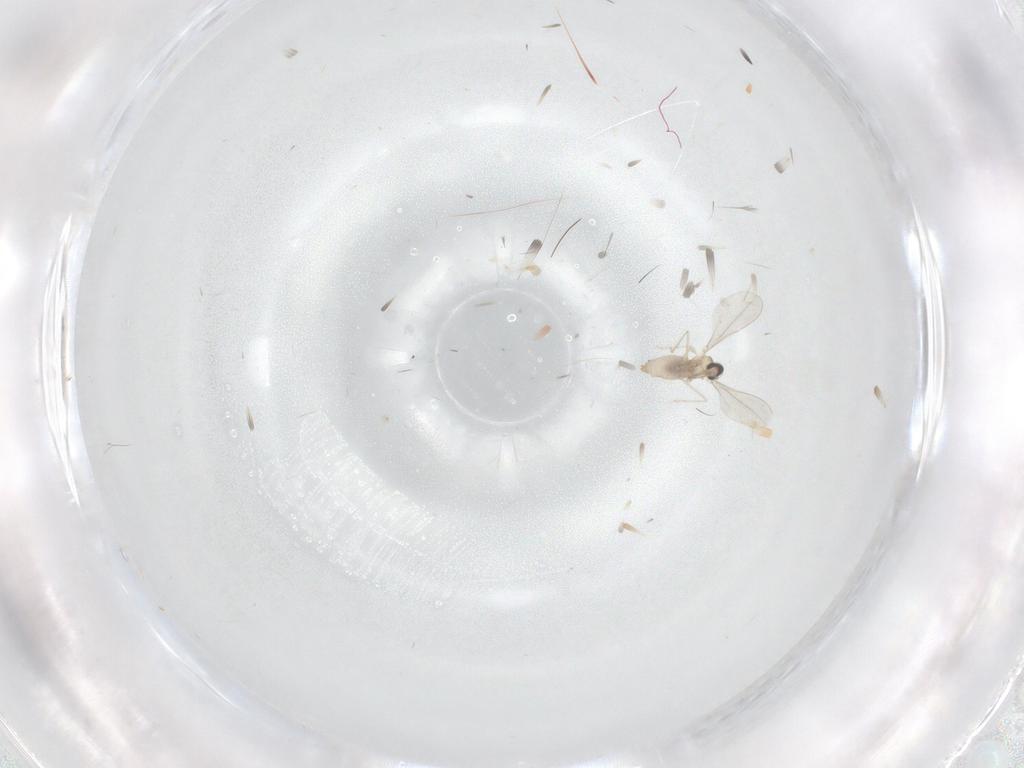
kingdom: Animalia
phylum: Arthropoda
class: Insecta
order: Diptera
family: Cecidomyiidae
